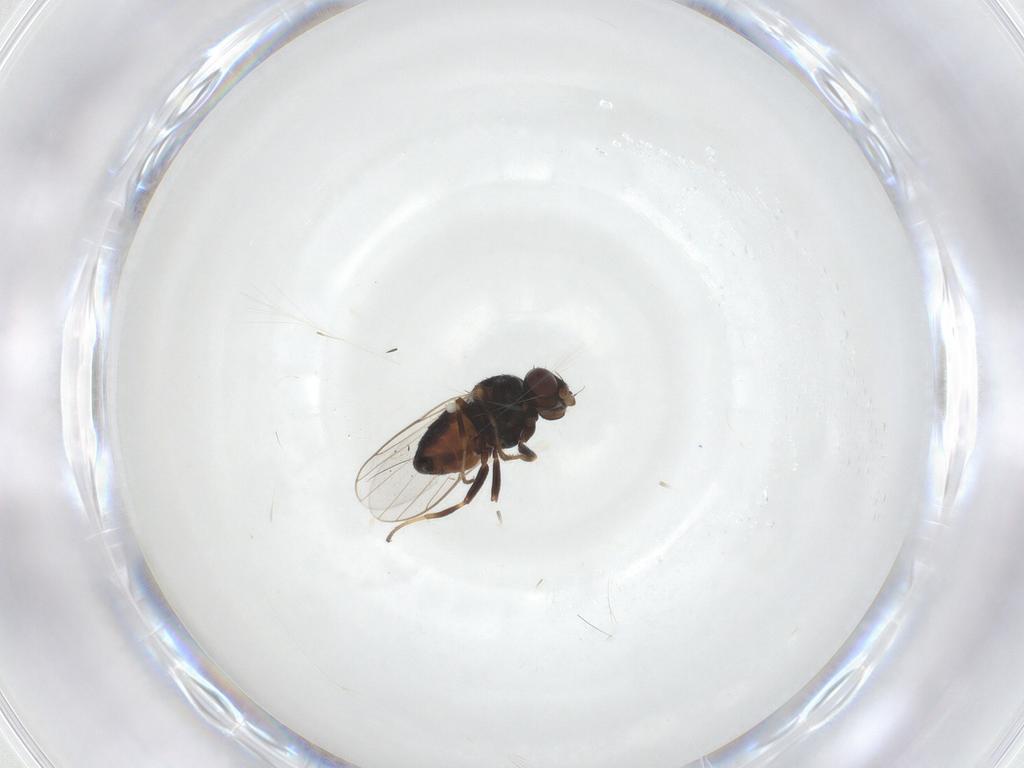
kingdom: Animalia
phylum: Arthropoda
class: Insecta
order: Diptera
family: Chloropidae
